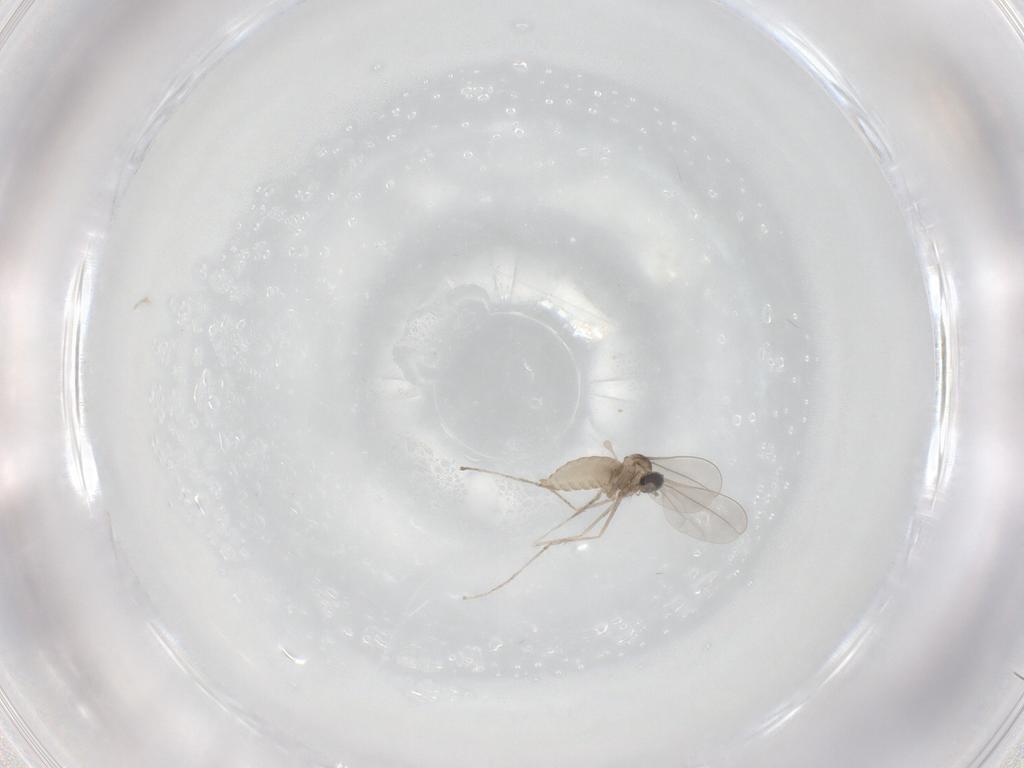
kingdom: Animalia
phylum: Arthropoda
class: Insecta
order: Diptera
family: Cecidomyiidae
